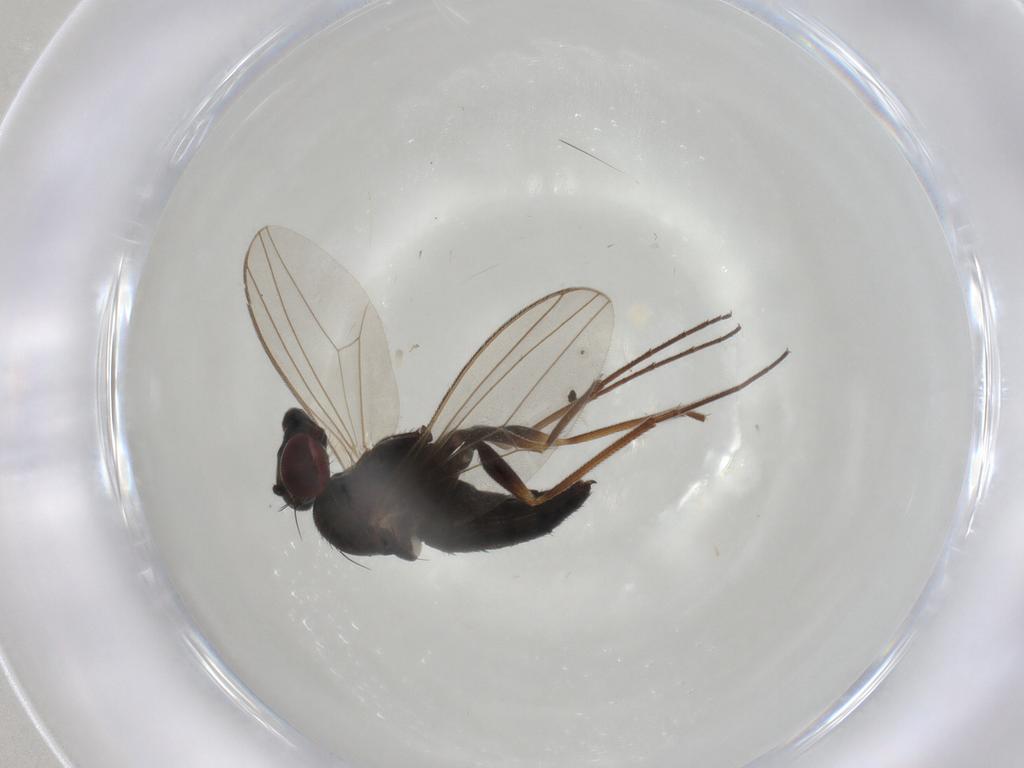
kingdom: Animalia
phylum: Arthropoda
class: Insecta
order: Diptera
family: Dolichopodidae
